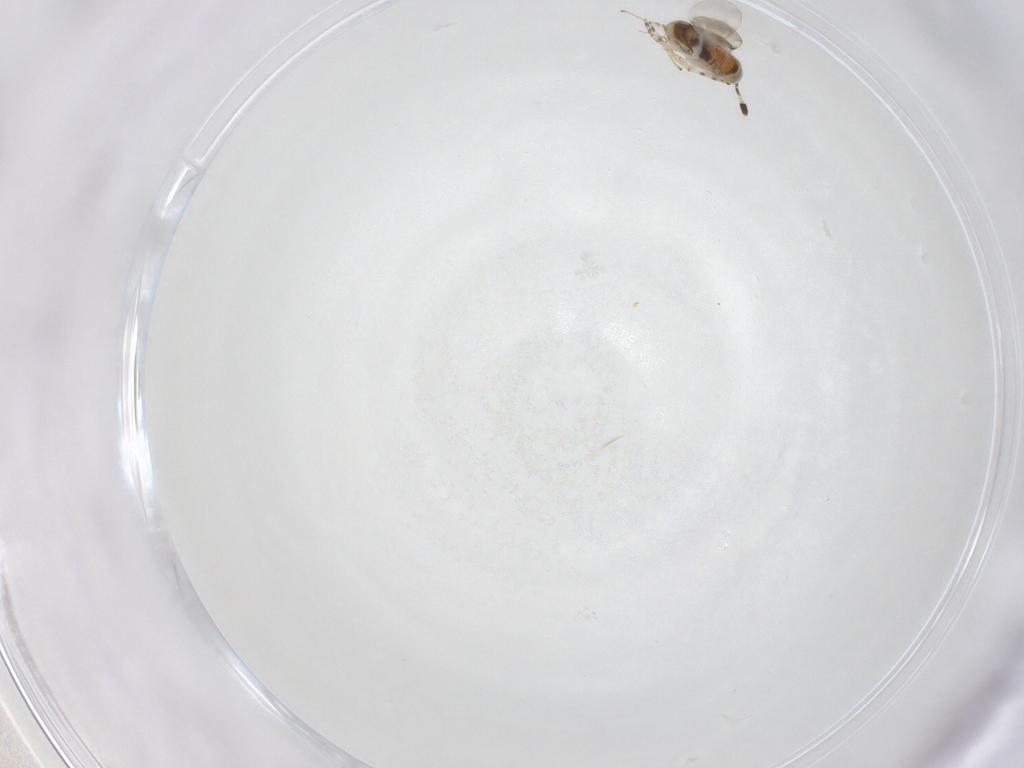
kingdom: Animalia
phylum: Arthropoda
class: Insecta
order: Hymenoptera
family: Encyrtidae
